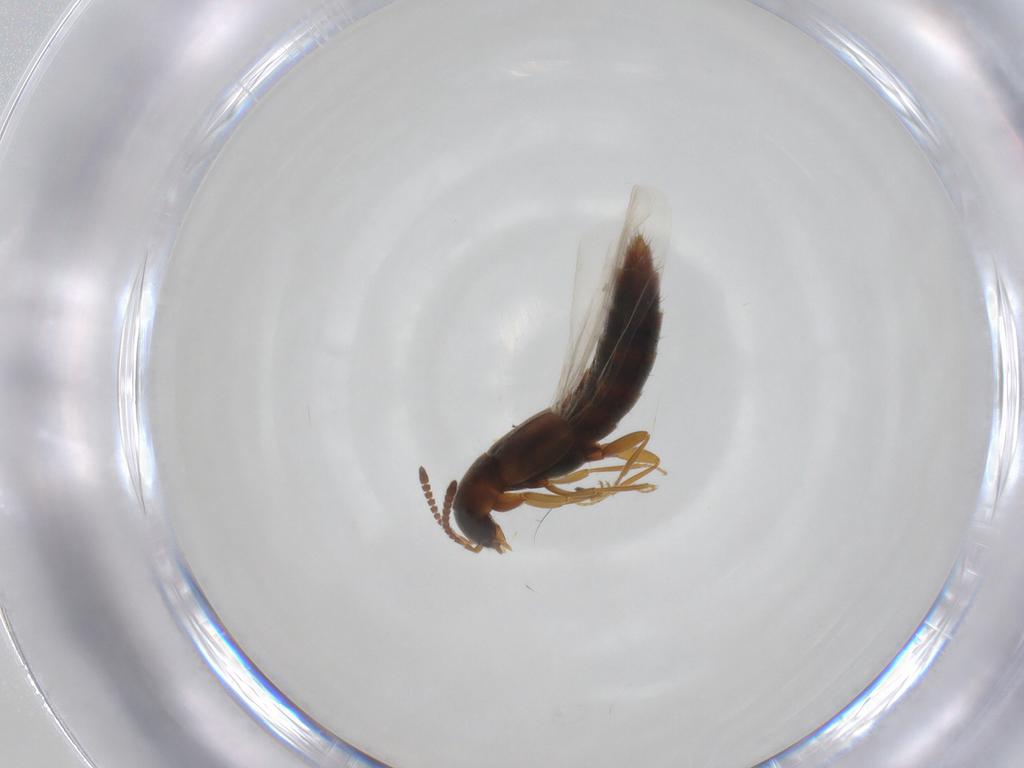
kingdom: Animalia
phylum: Arthropoda
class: Insecta
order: Coleoptera
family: Staphylinidae
